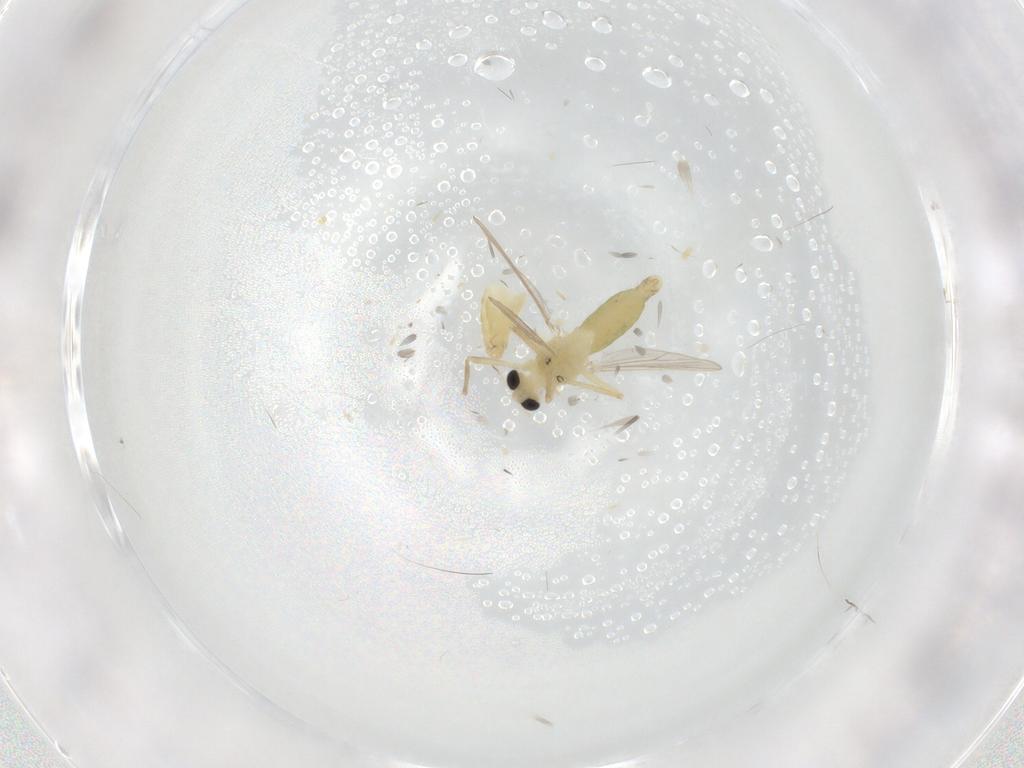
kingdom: Animalia
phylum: Arthropoda
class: Insecta
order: Diptera
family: Chironomidae
